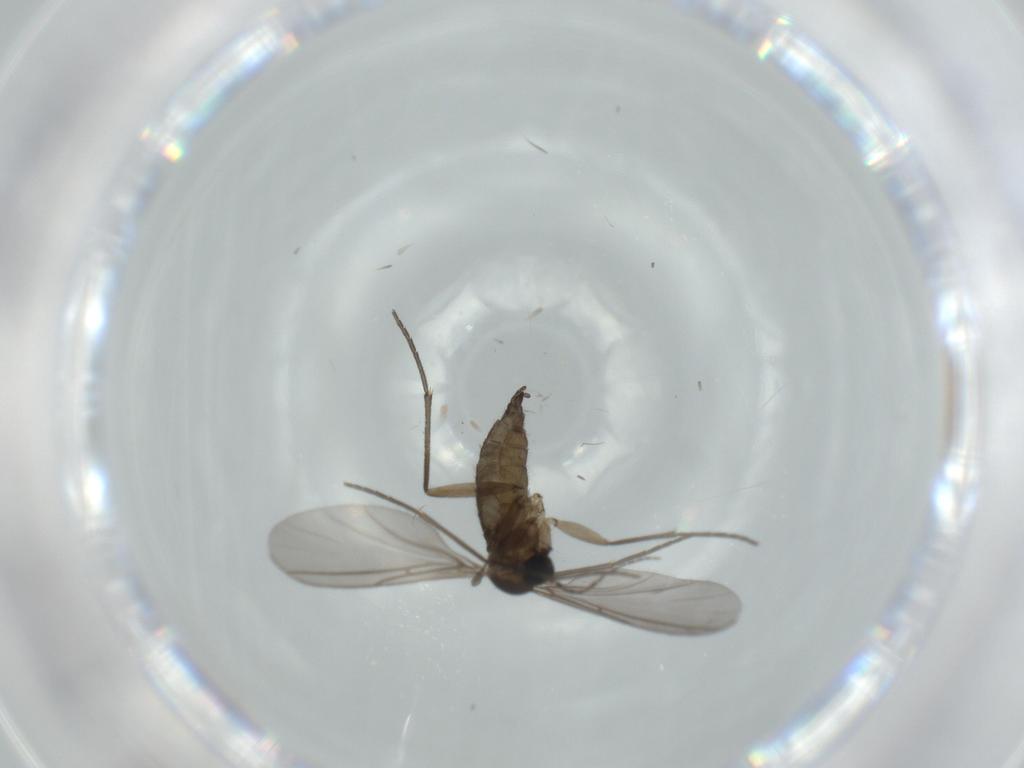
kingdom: Animalia
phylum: Arthropoda
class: Insecta
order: Diptera
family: Sciaridae
